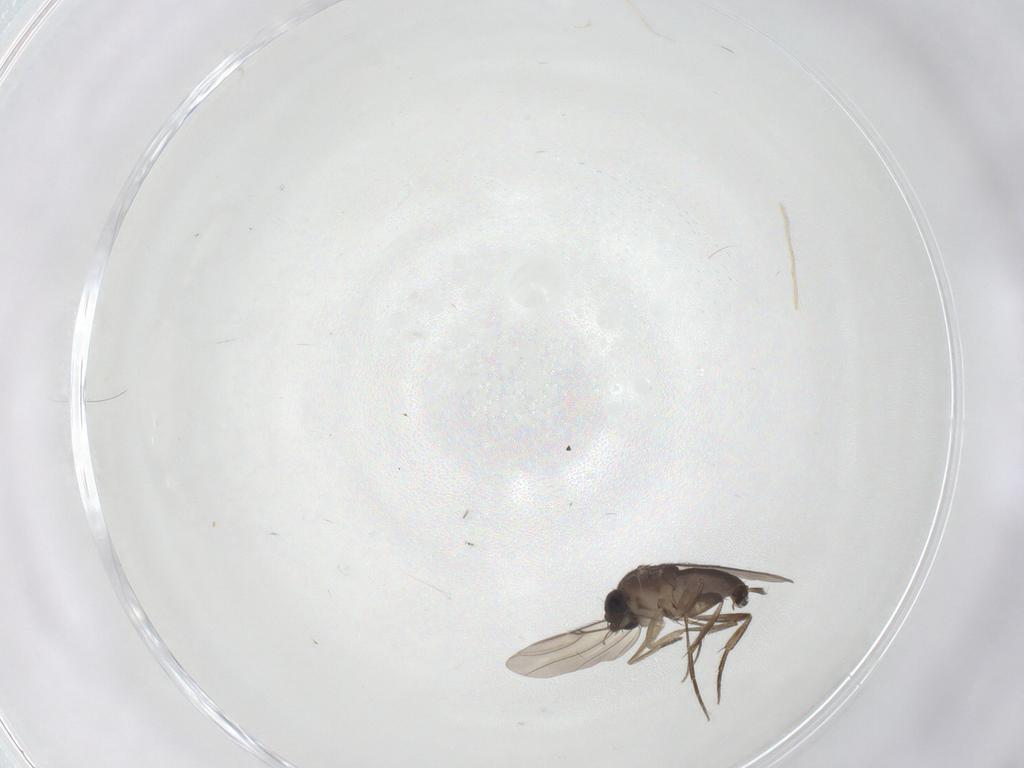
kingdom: Animalia
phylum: Arthropoda
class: Insecta
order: Diptera
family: Phoridae
